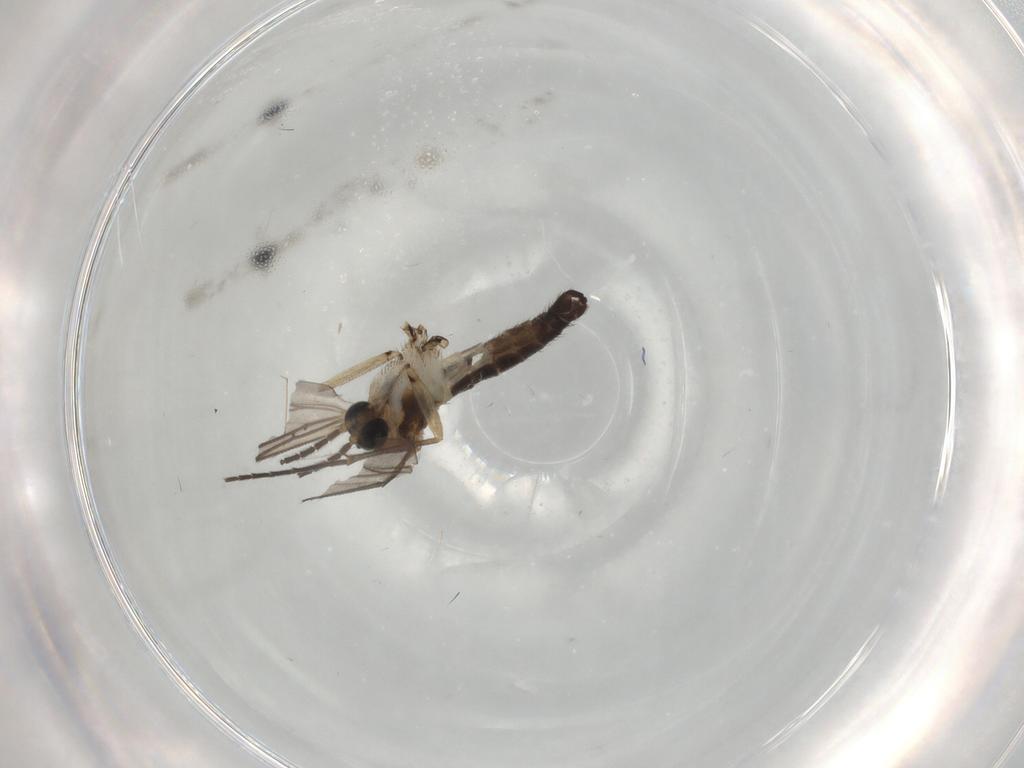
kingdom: Animalia
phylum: Arthropoda
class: Insecta
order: Diptera
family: Sciaridae
